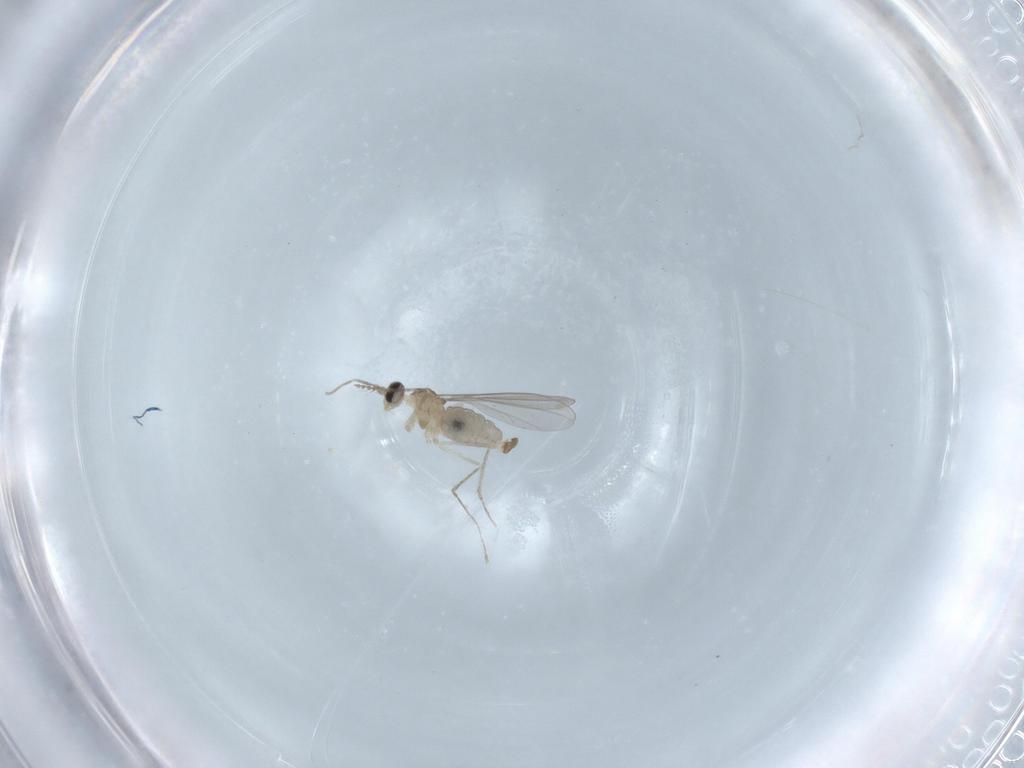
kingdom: Animalia
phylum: Arthropoda
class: Insecta
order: Diptera
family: Cecidomyiidae
